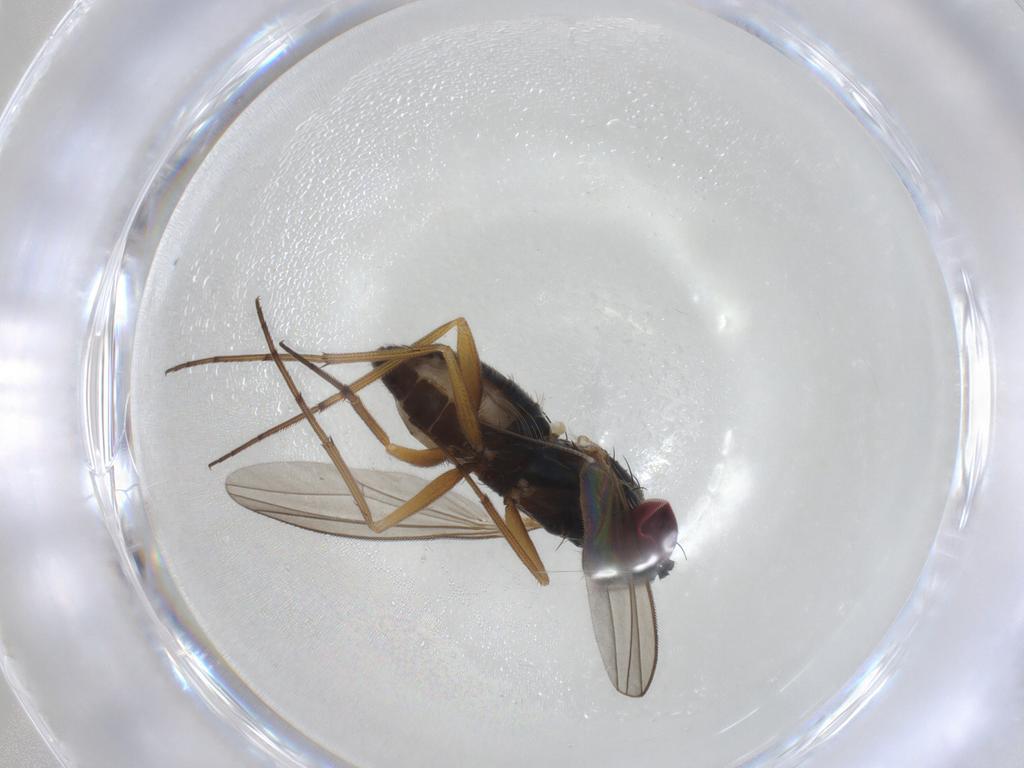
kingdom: Animalia
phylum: Arthropoda
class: Insecta
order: Diptera
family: Dolichopodidae
